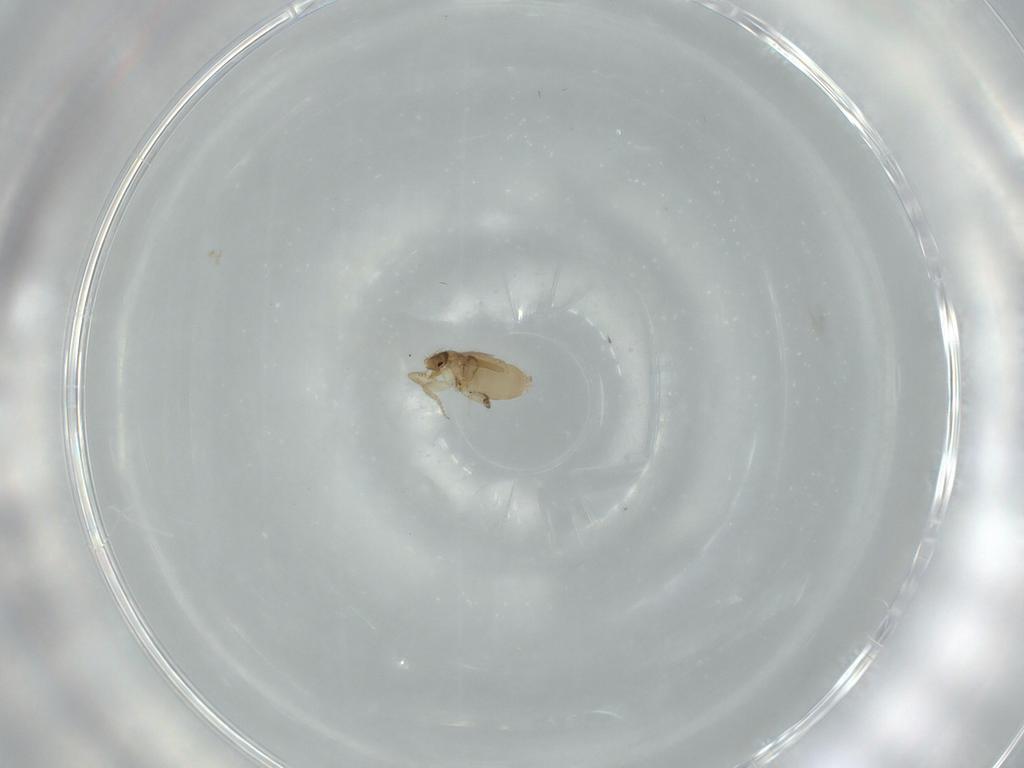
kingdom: Animalia
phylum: Arthropoda
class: Insecta
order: Diptera
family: Phoridae
